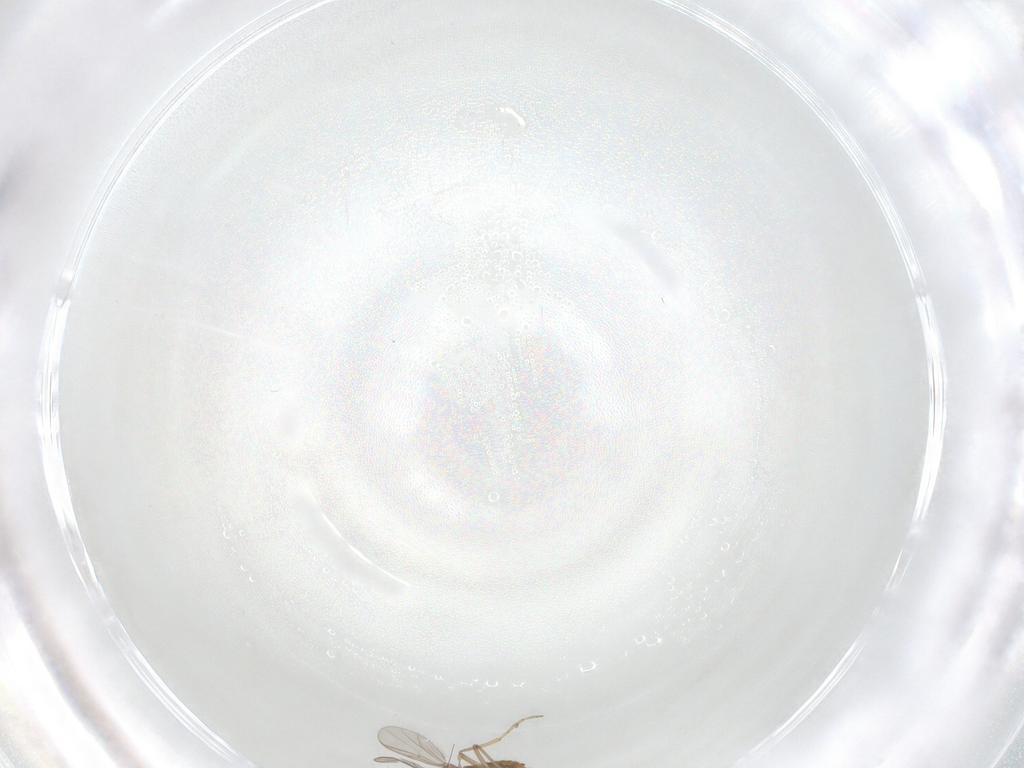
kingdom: Animalia
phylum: Arthropoda
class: Insecta
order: Diptera
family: Chironomidae
